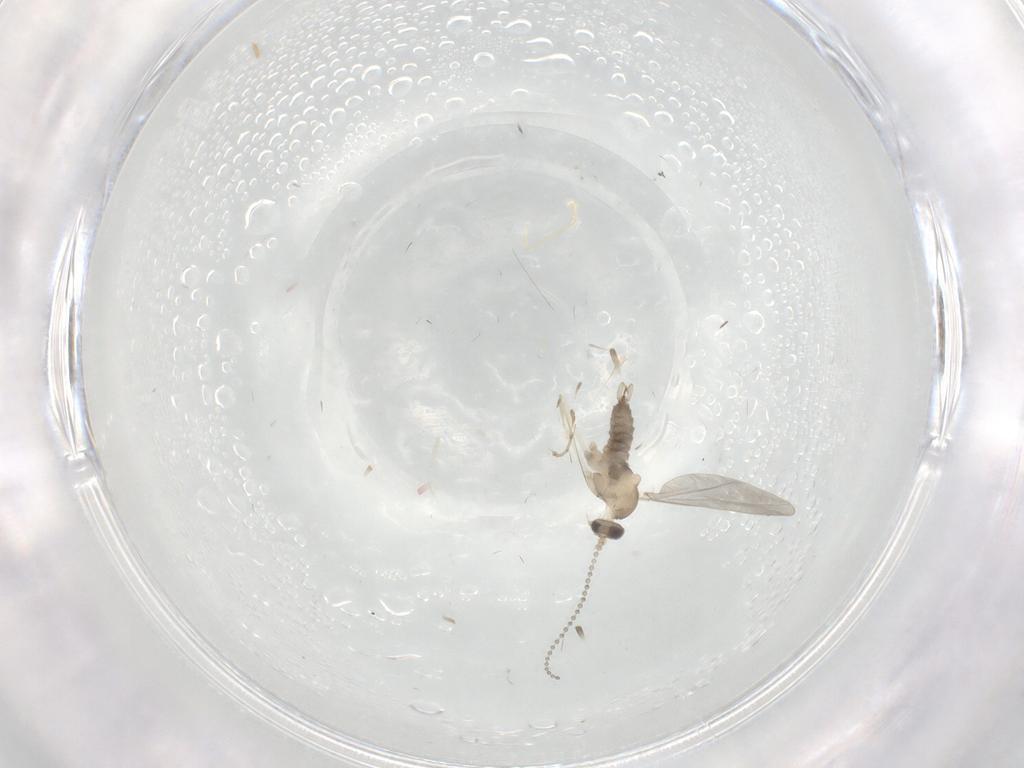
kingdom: Animalia
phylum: Arthropoda
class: Insecta
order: Diptera
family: Cecidomyiidae
